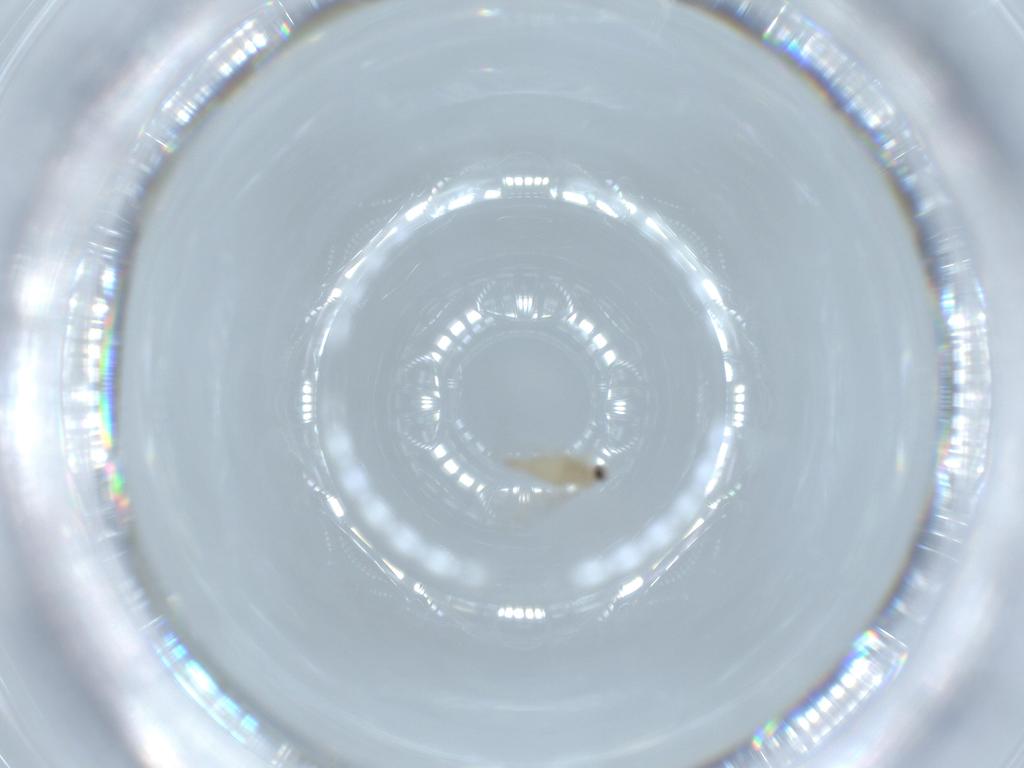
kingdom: Animalia
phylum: Arthropoda
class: Insecta
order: Diptera
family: Cecidomyiidae
